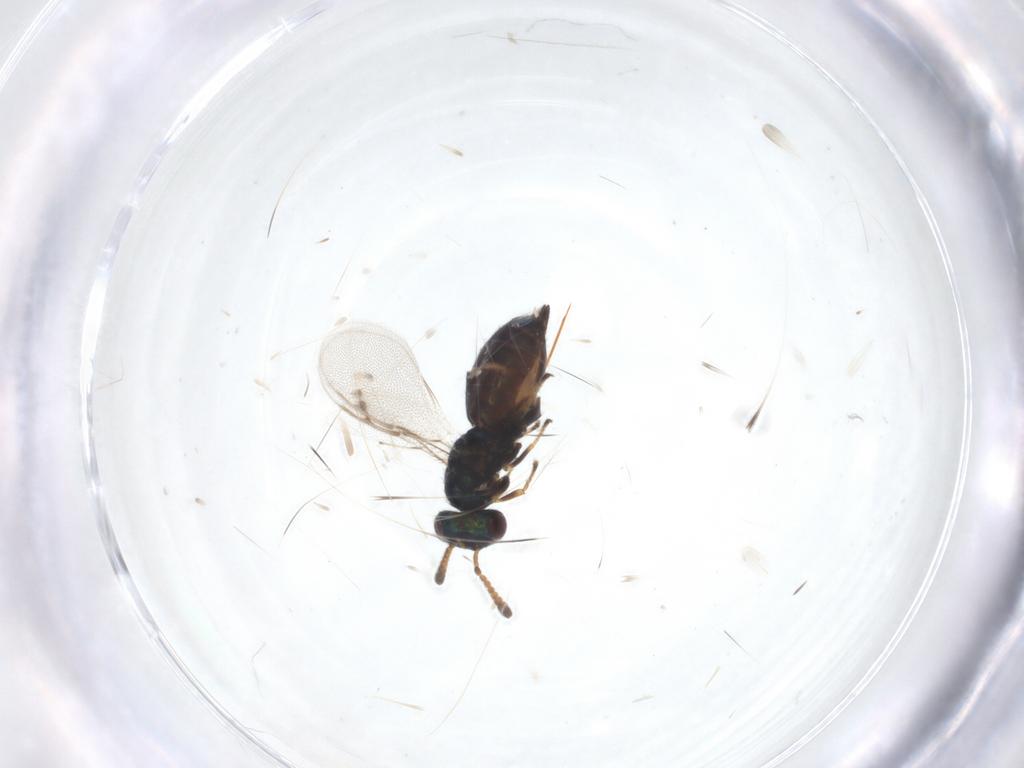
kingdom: Animalia
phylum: Arthropoda
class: Insecta
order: Hymenoptera
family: Pirenidae
